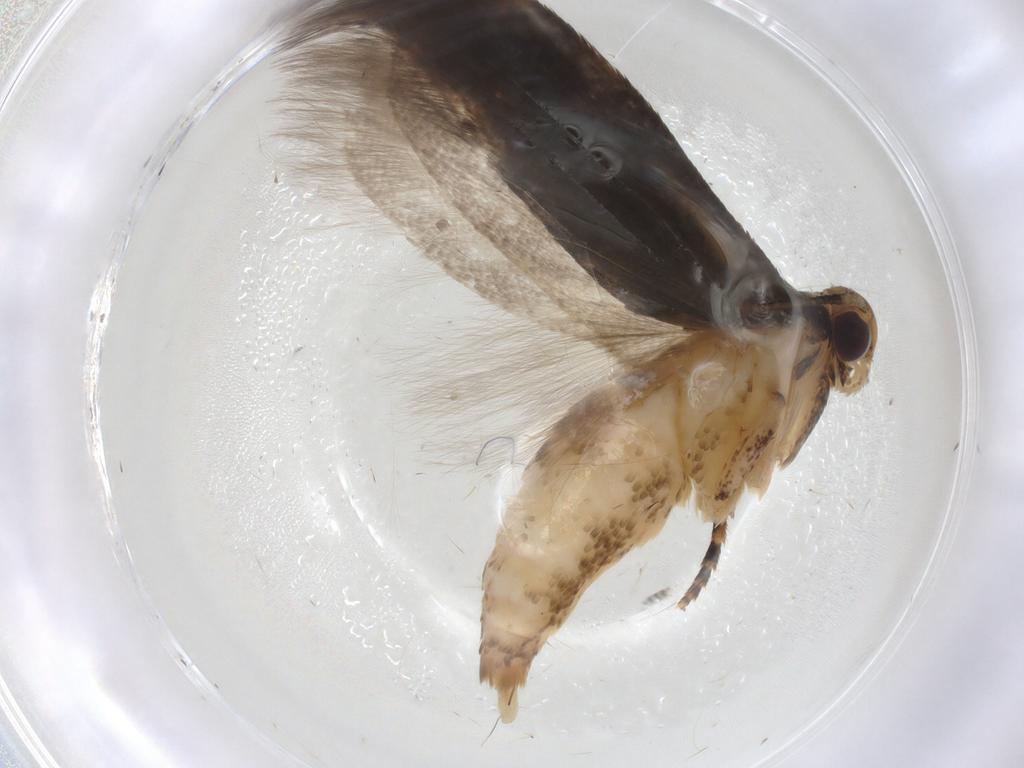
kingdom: Animalia
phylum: Arthropoda
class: Insecta
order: Lepidoptera
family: Gelechiidae
